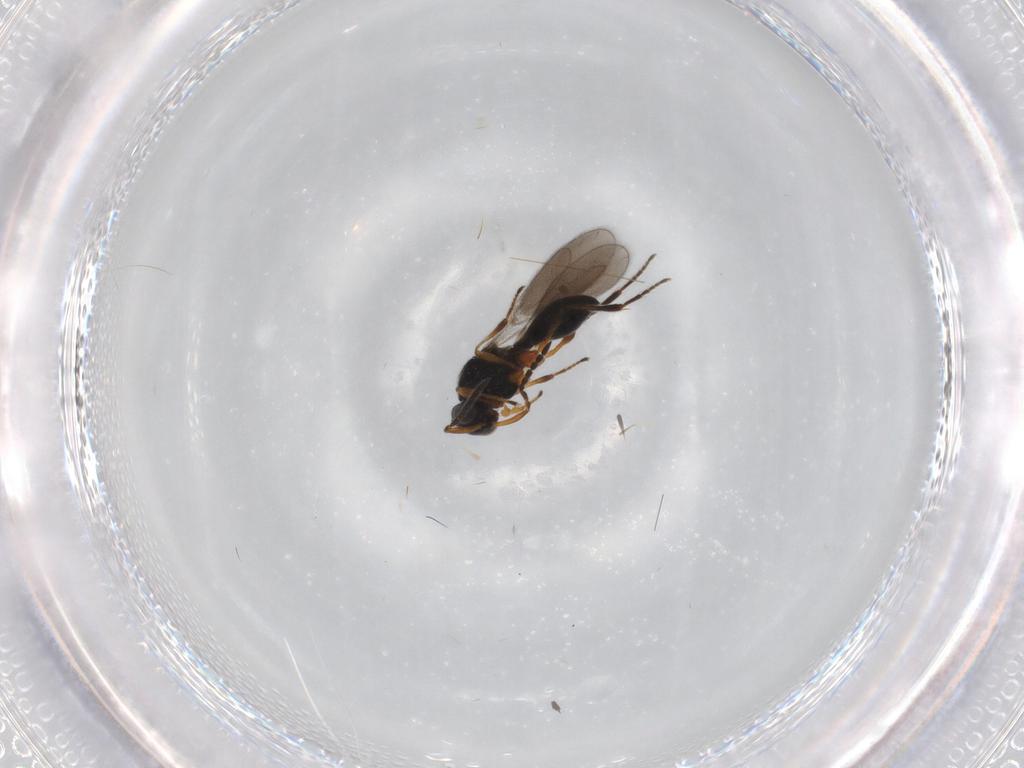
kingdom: Animalia
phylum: Arthropoda
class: Insecta
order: Hymenoptera
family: Platygastridae
